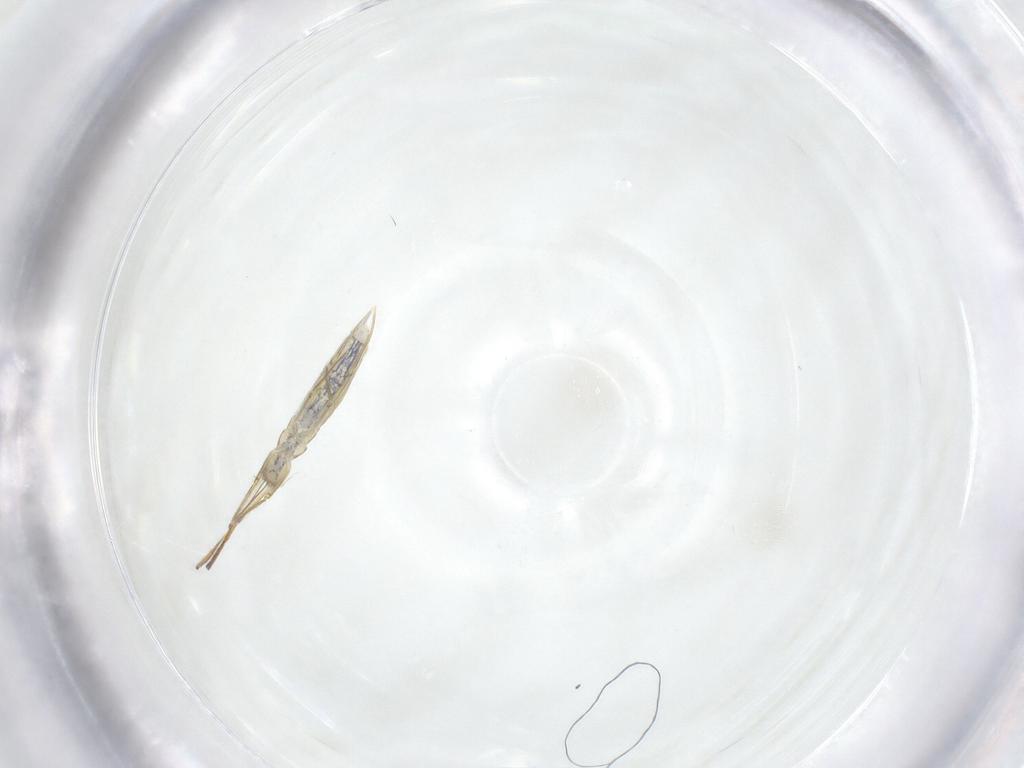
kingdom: Animalia
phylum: Arthropoda
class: Collembola
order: Entomobryomorpha
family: Entomobryidae
